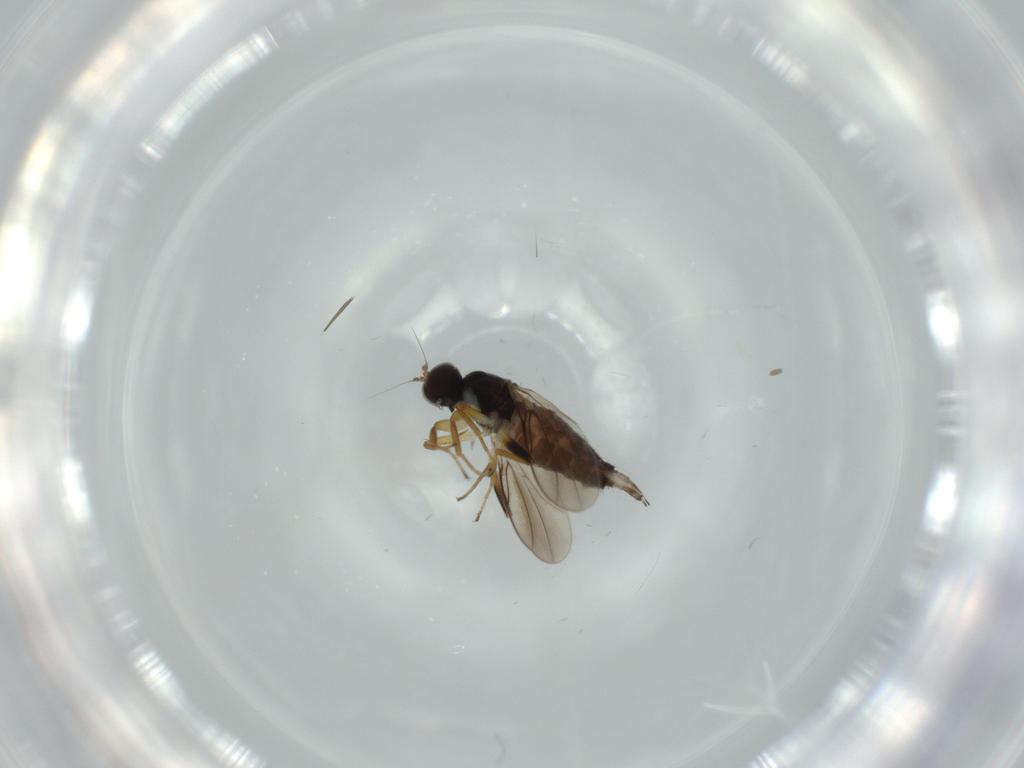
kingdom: Animalia
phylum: Arthropoda
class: Insecta
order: Diptera
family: Hybotidae
